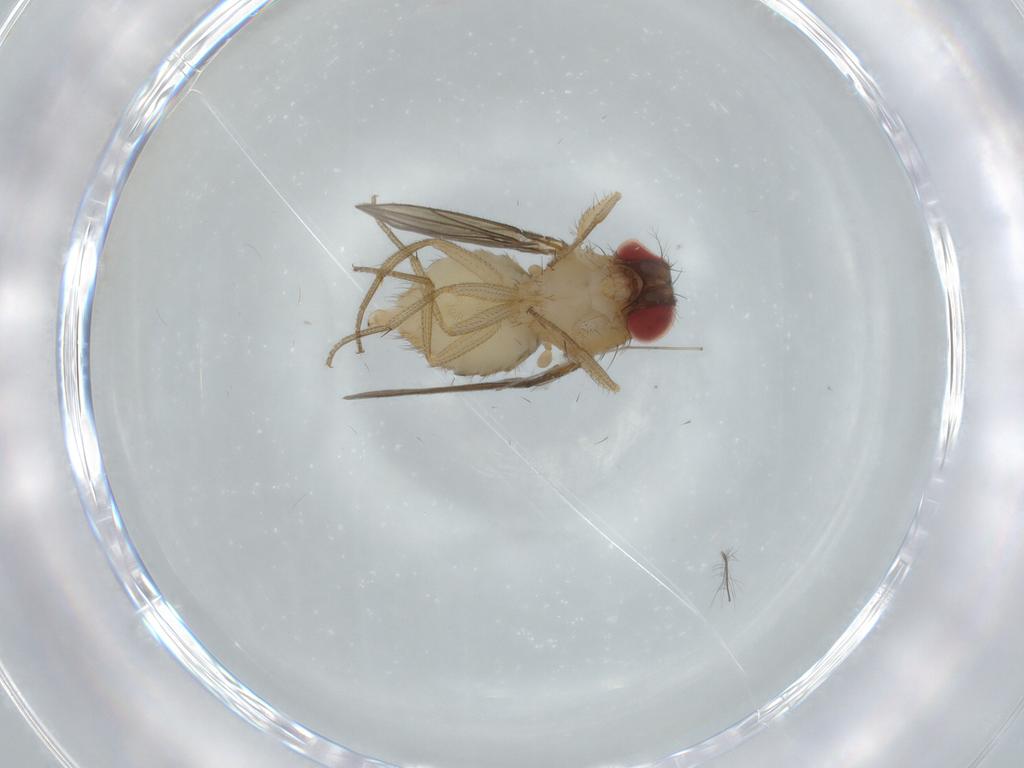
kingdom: Animalia
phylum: Arthropoda
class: Insecta
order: Diptera
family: Drosophilidae
